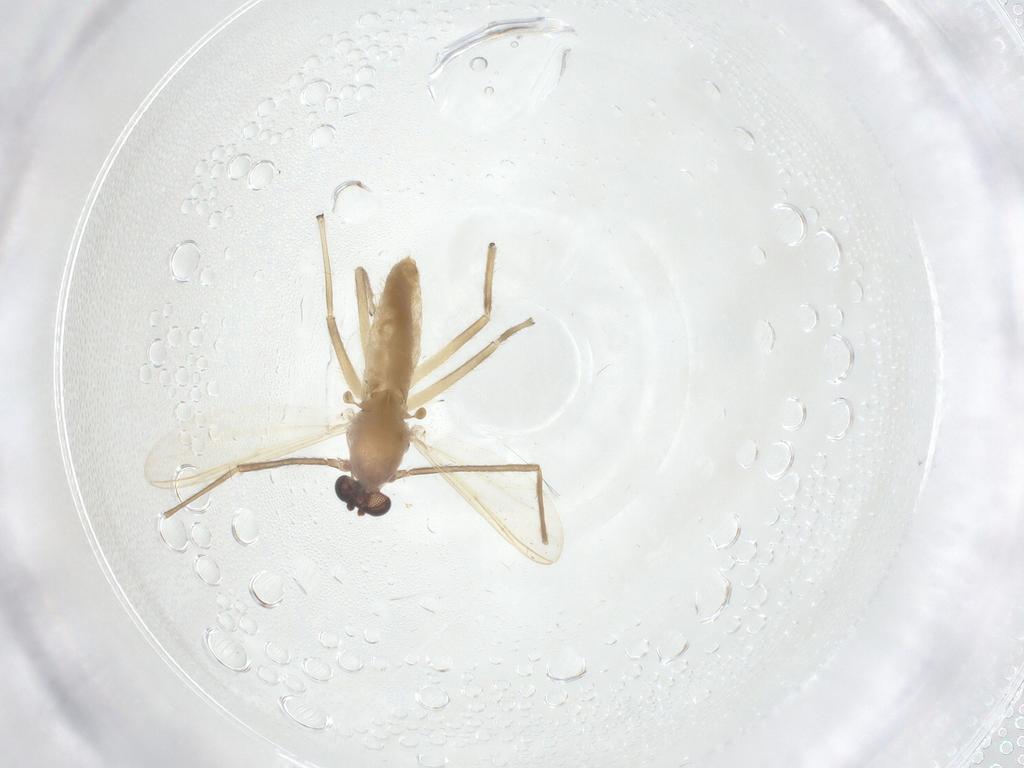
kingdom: Animalia
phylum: Arthropoda
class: Insecta
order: Diptera
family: Chironomidae
